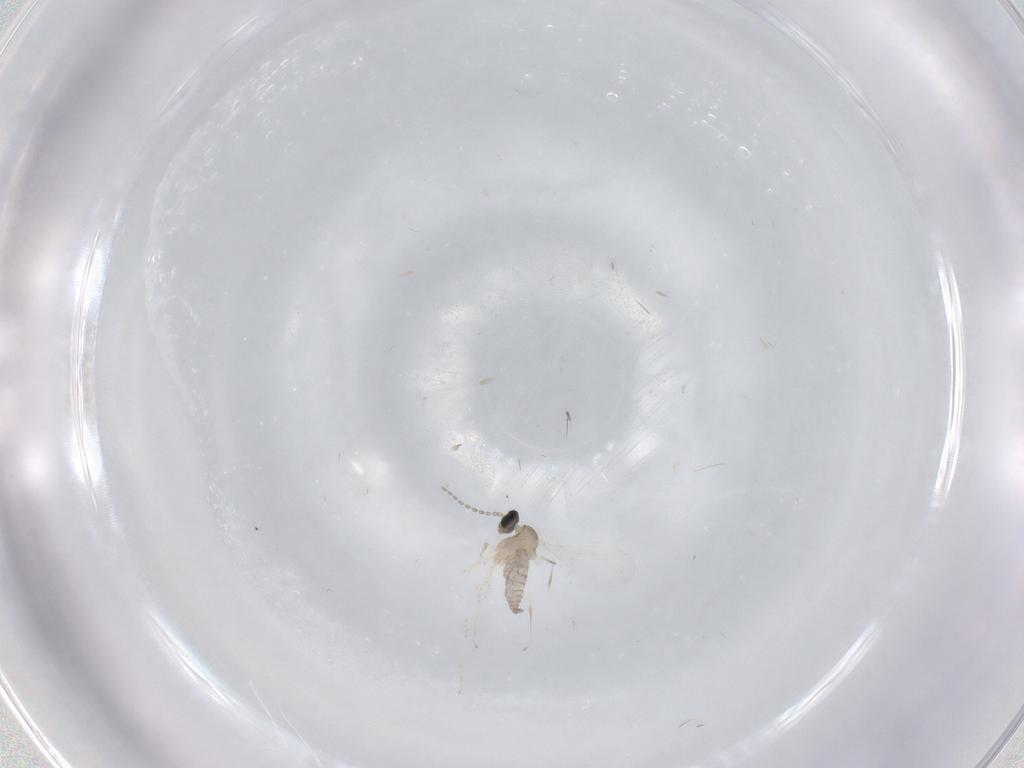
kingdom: Animalia
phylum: Arthropoda
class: Insecta
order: Diptera
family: Cecidomyiidae
